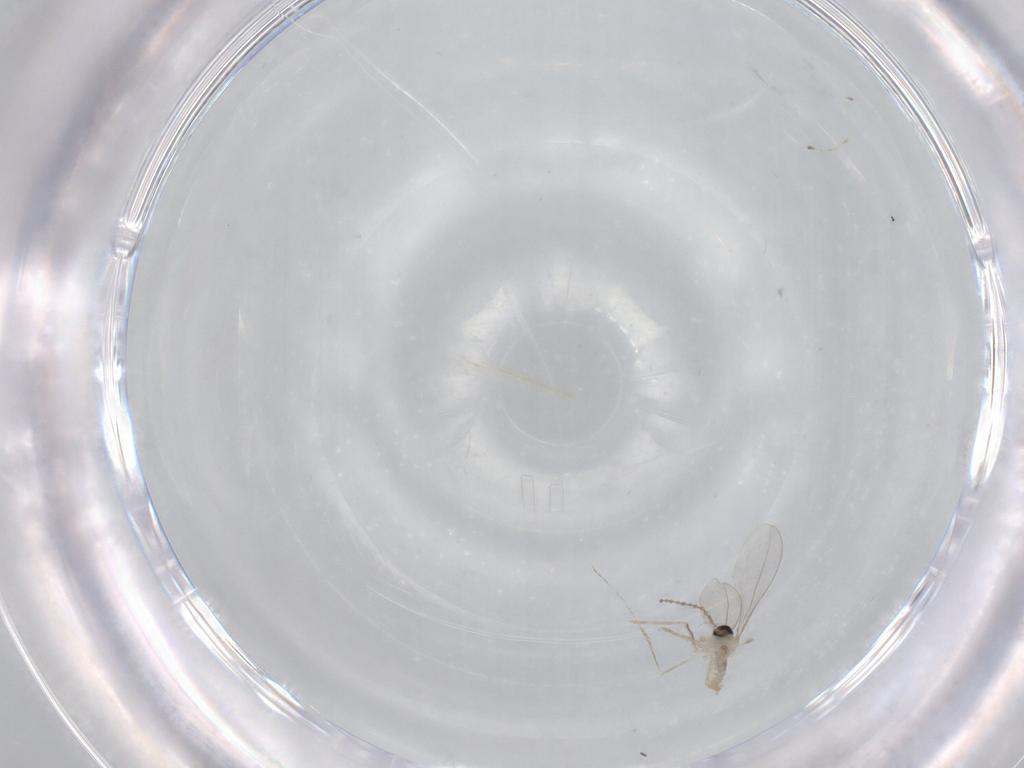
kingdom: Animalia
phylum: Arthropoda
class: Insecta
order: Diptera
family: Cecidomyiidae
